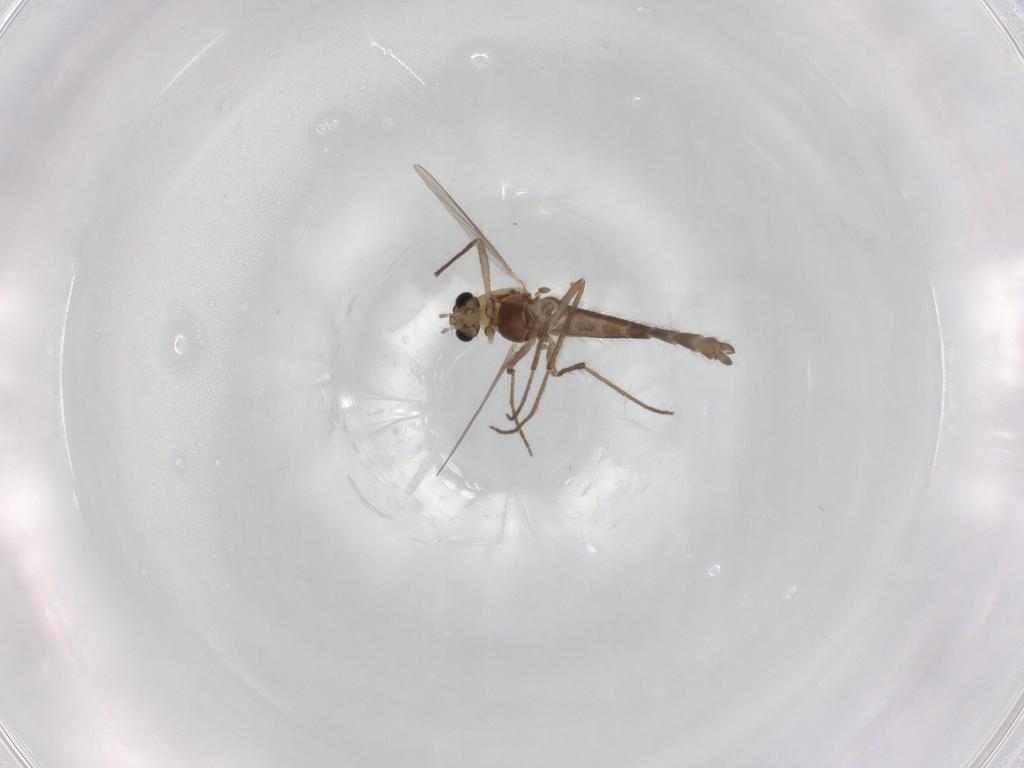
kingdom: Animalia
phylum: Arthropoda
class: Insecta
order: Diptera
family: Chironomidae
